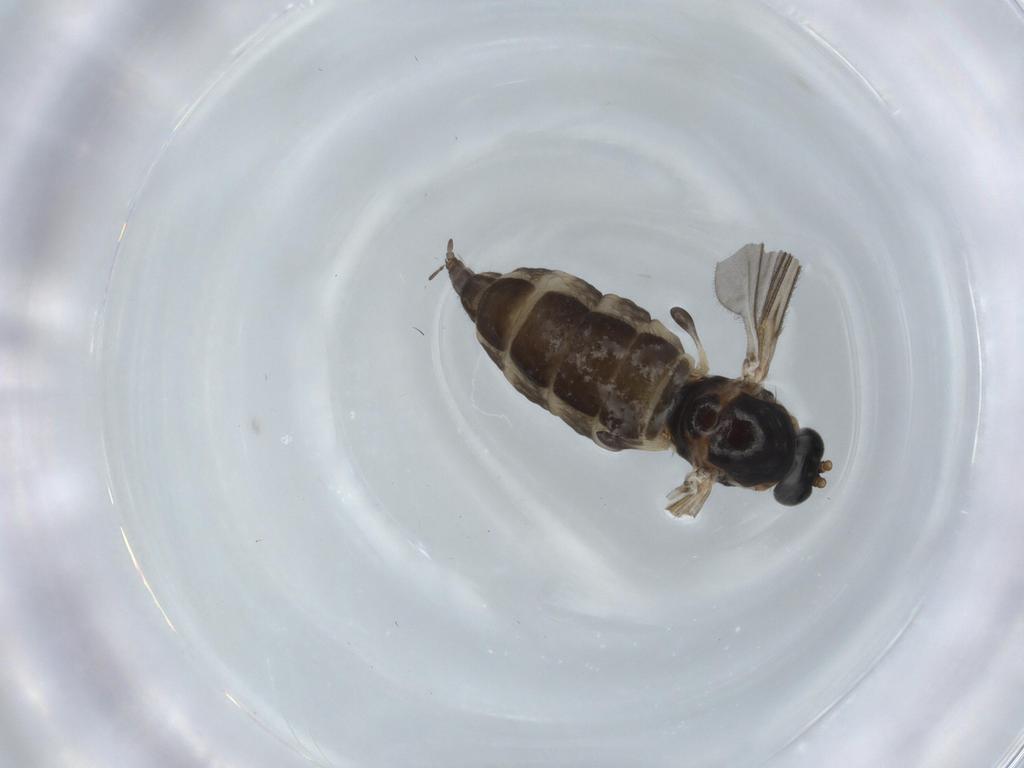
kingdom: Animalia
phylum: Arthropoda
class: Insecta
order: Diptera
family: Sciaridae
